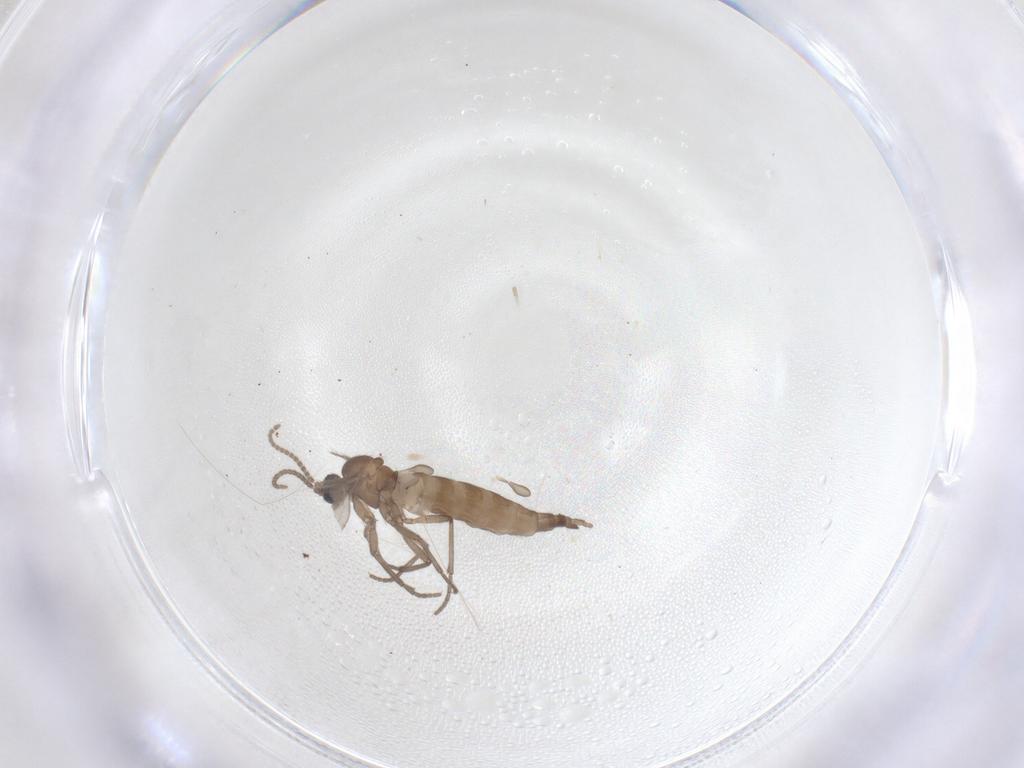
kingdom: Animalia
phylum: Arthropoda
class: Insecta
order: Diptera
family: Sciaridae
